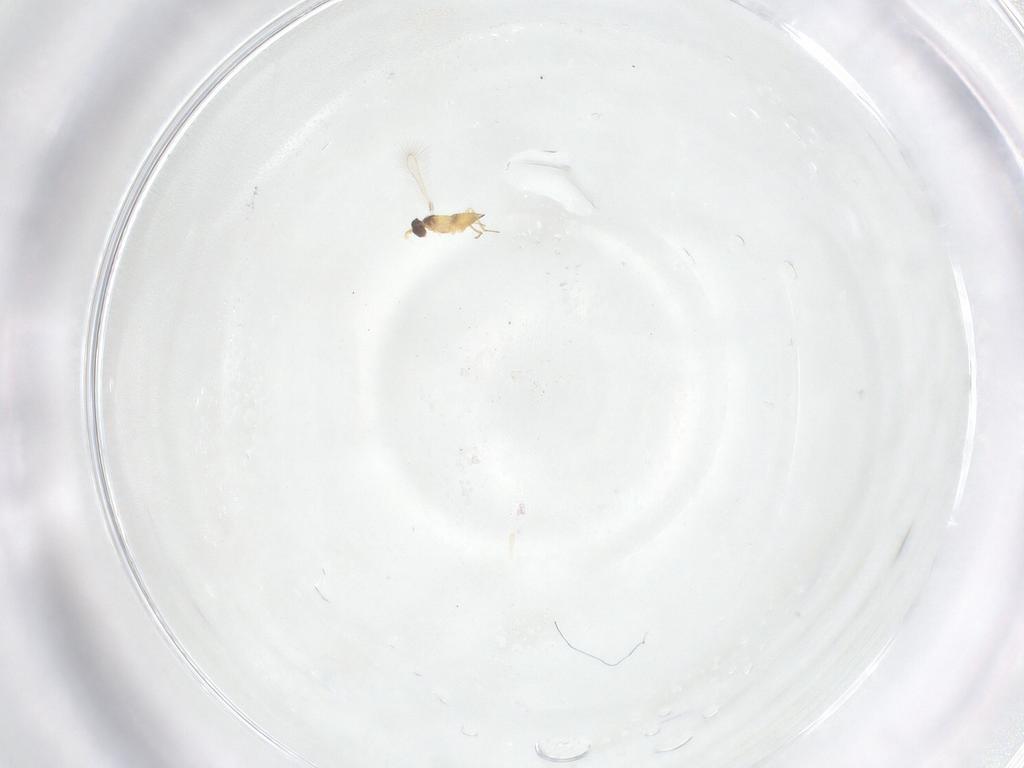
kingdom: Animalia
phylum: Arthropoda
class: Insecta
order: Hymenoptera
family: Mymaridae
